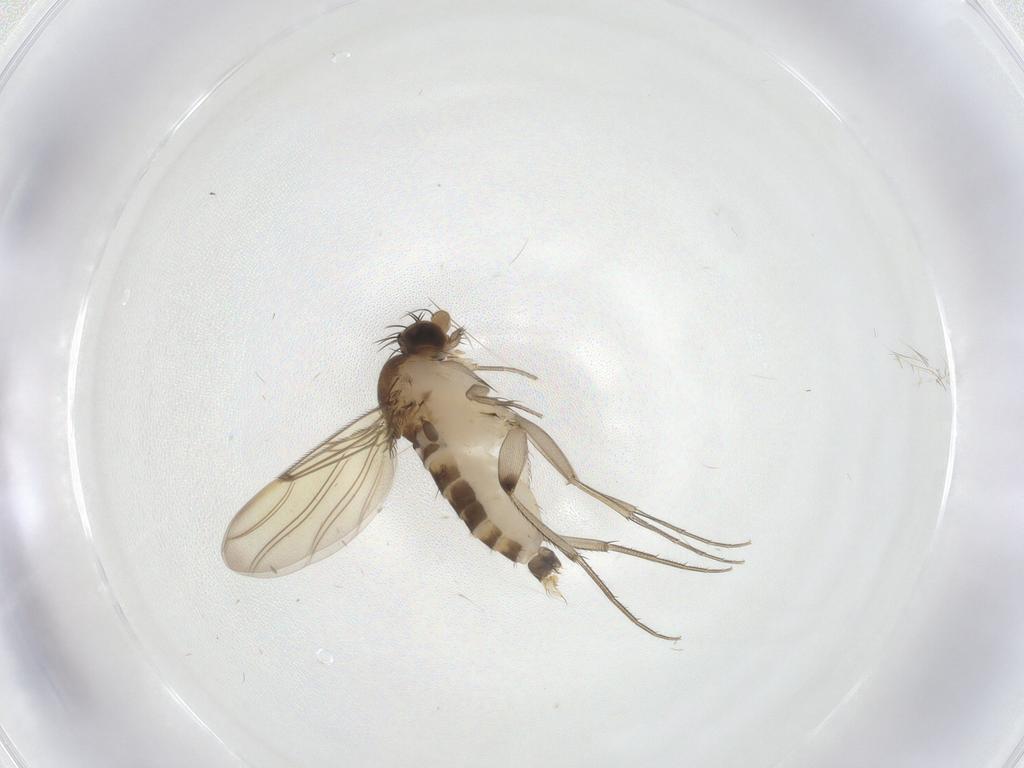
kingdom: Animalia
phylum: Arthropoda
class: Insecta
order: Diptera
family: Phoridae
